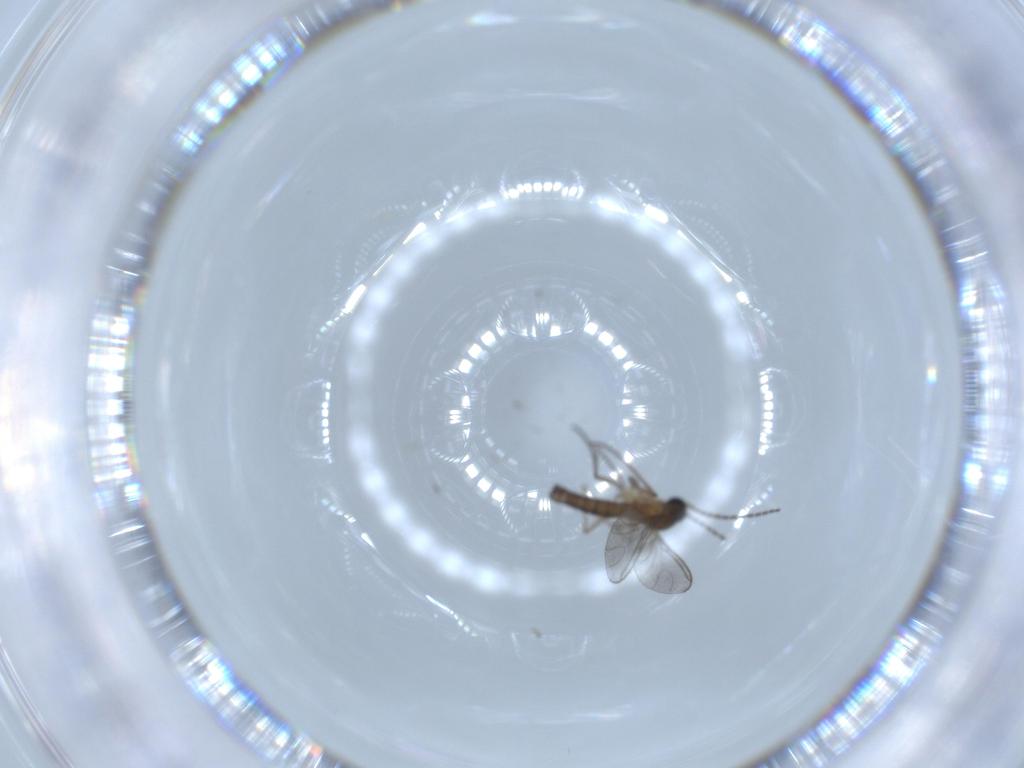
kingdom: Animalia
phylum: Arthropoda
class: Insecta
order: Diptera
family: Sciaridae
